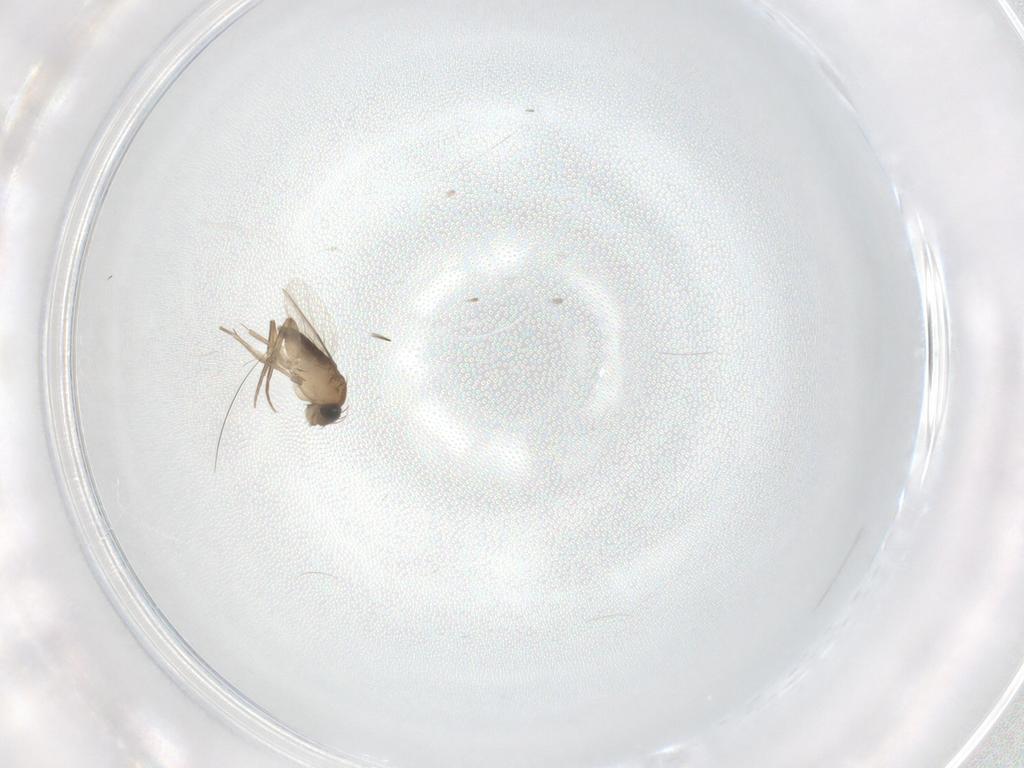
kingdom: Animalia
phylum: Arthropoda
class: Insecta
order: Diptera
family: Phoridae
